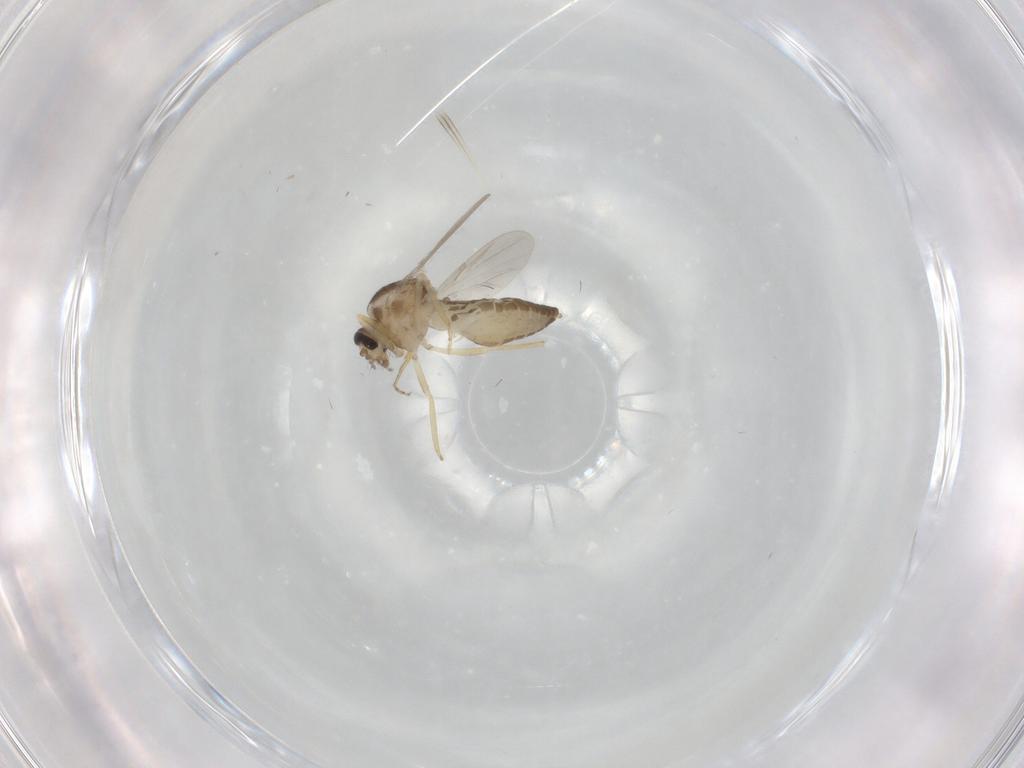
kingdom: Animalia
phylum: Arthropoda
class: Insecta
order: Diptera
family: Ceratopogonidae
